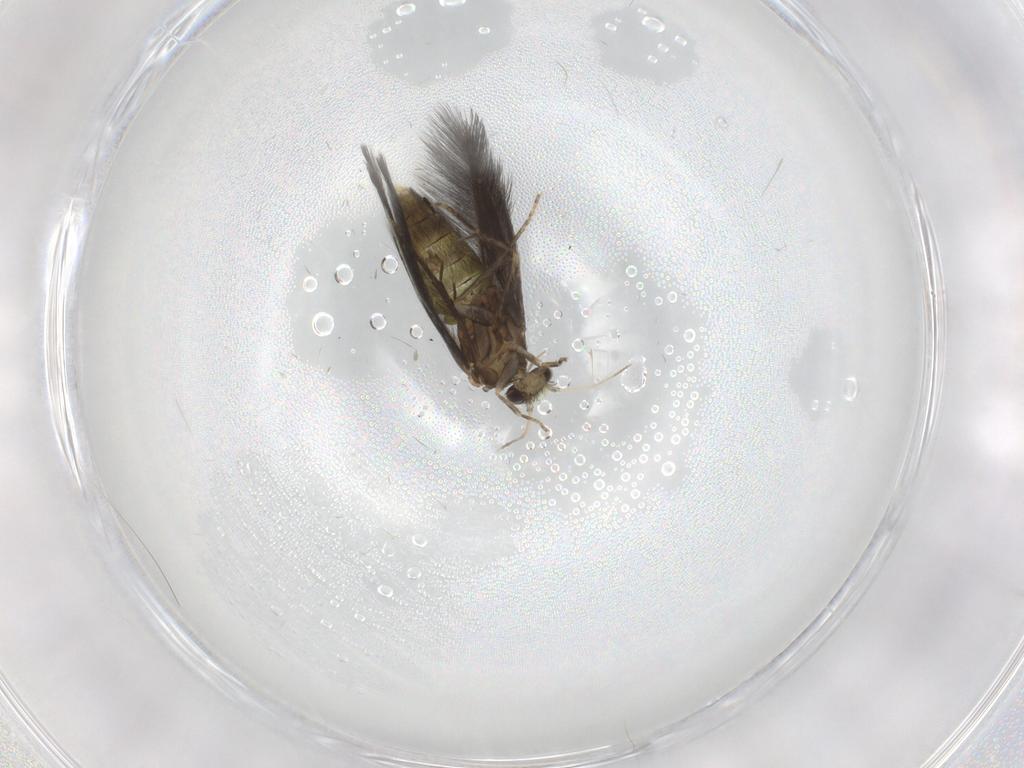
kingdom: Animalia
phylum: Arthropoda
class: Insecta
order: Trichoptera
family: Hydroptilidae
